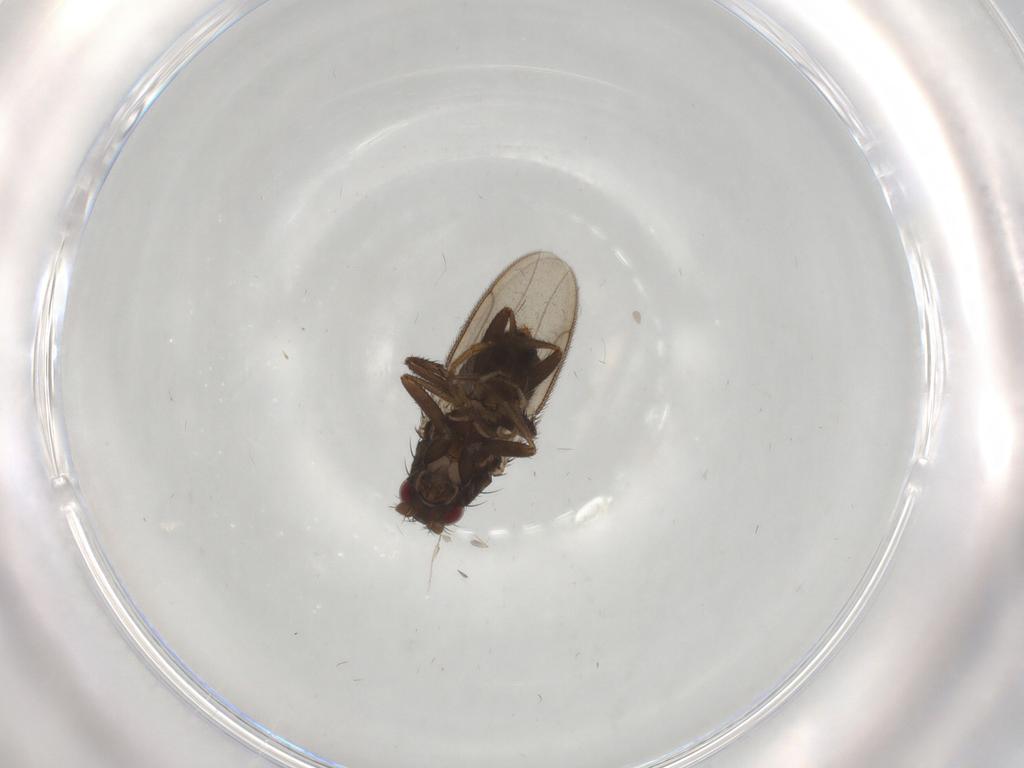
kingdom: Animalia
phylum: Arthropoda
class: Insecta
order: Diptera
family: Sphaeroceridae
